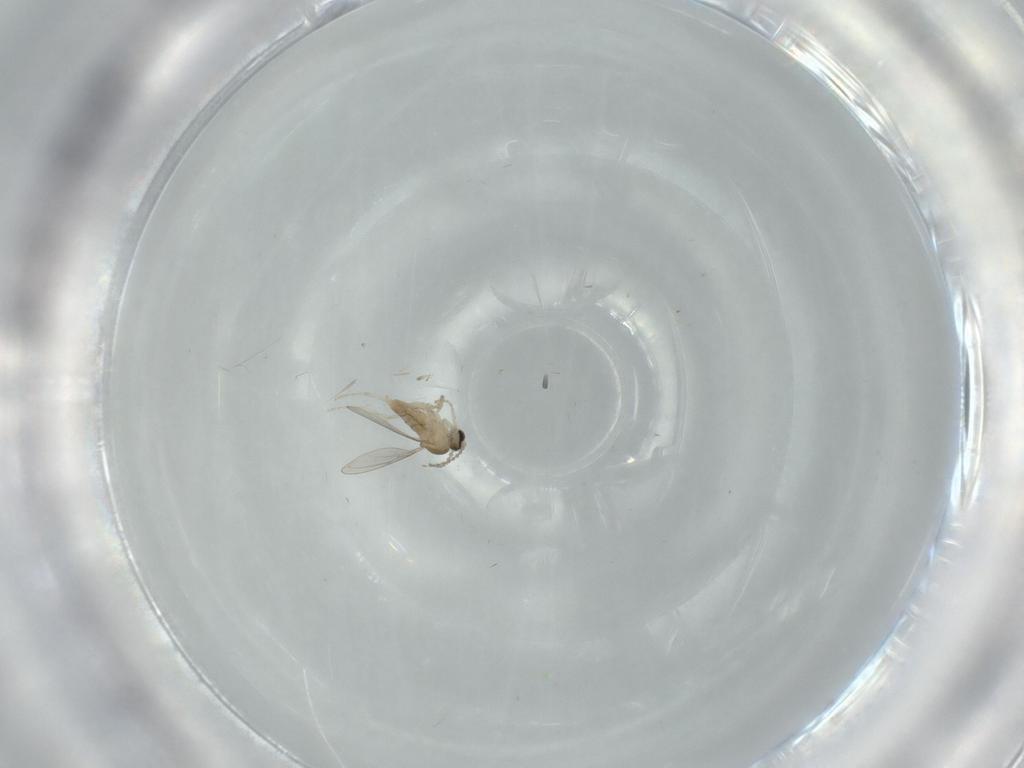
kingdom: Animalia
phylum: Arthropoda
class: Insecta
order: Diptera
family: Cecidomyiidae
